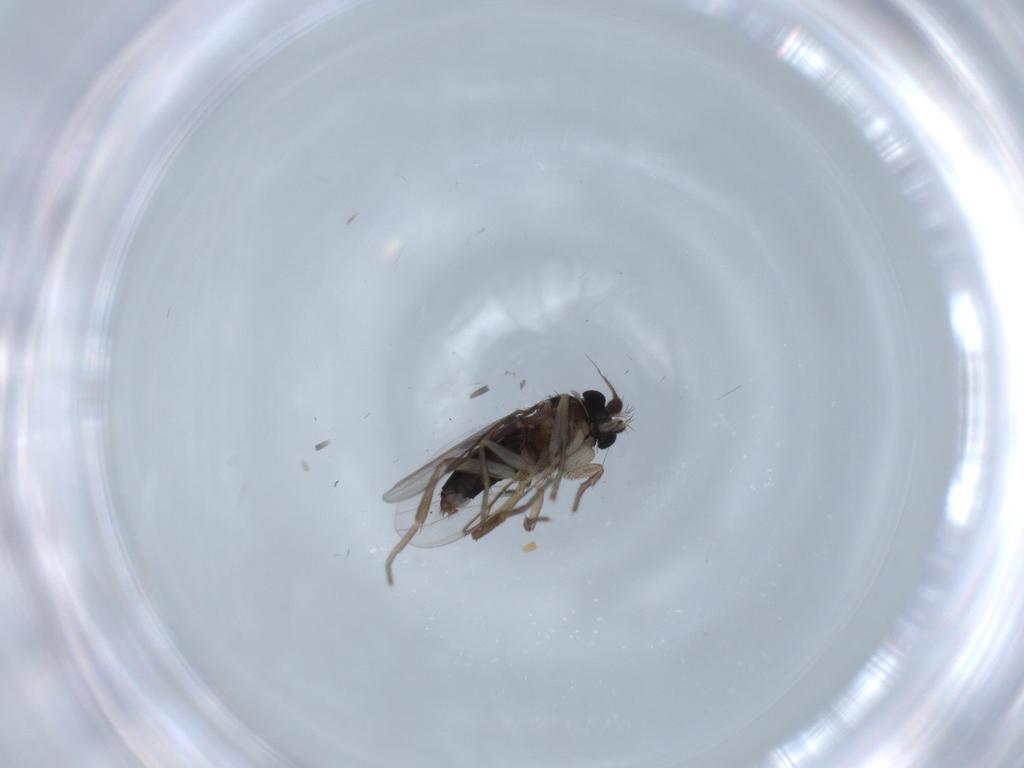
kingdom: Animalia
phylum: Arthropoda
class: Insecta
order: Diptera
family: Phoridae
